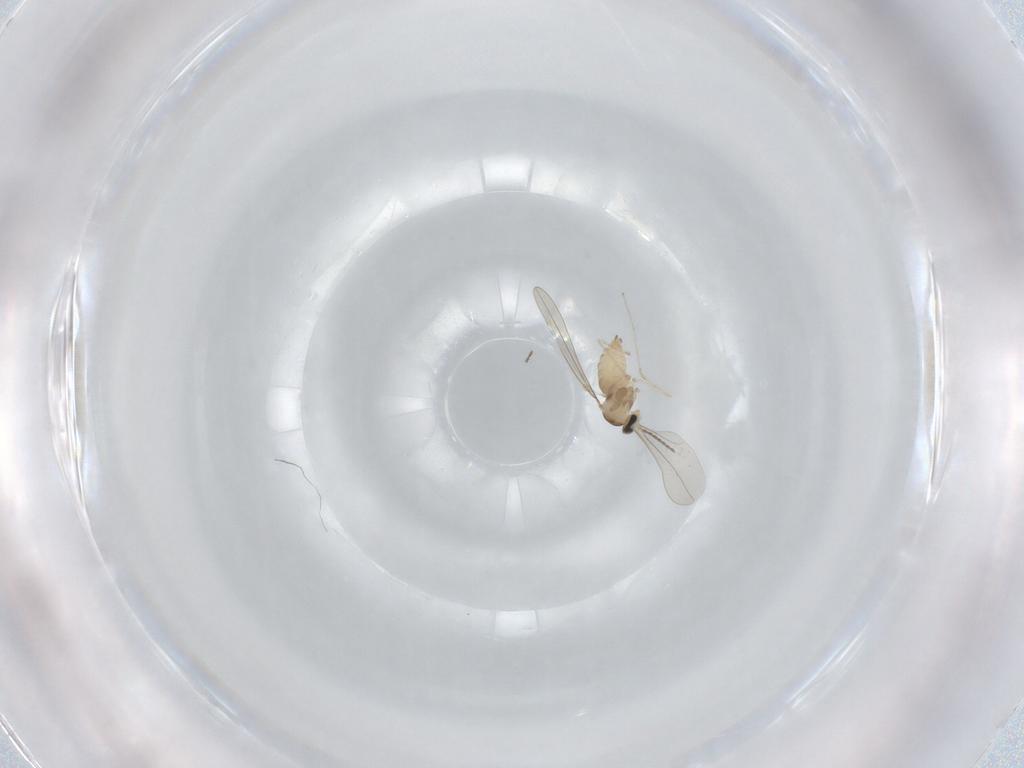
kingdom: Animalia
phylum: Arthropoda
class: Insecta
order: Diptera
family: Cecidomyiidae
